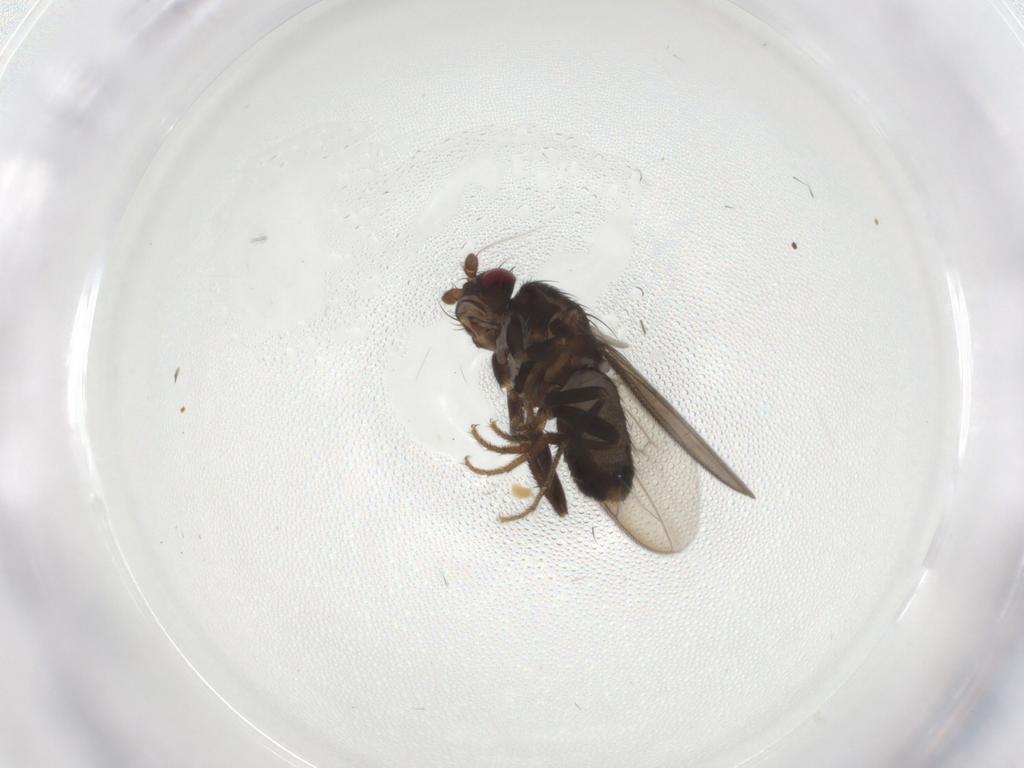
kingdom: Animalia
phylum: Arthropoda
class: Insecta
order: Diptera
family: Sphaeroceridae
